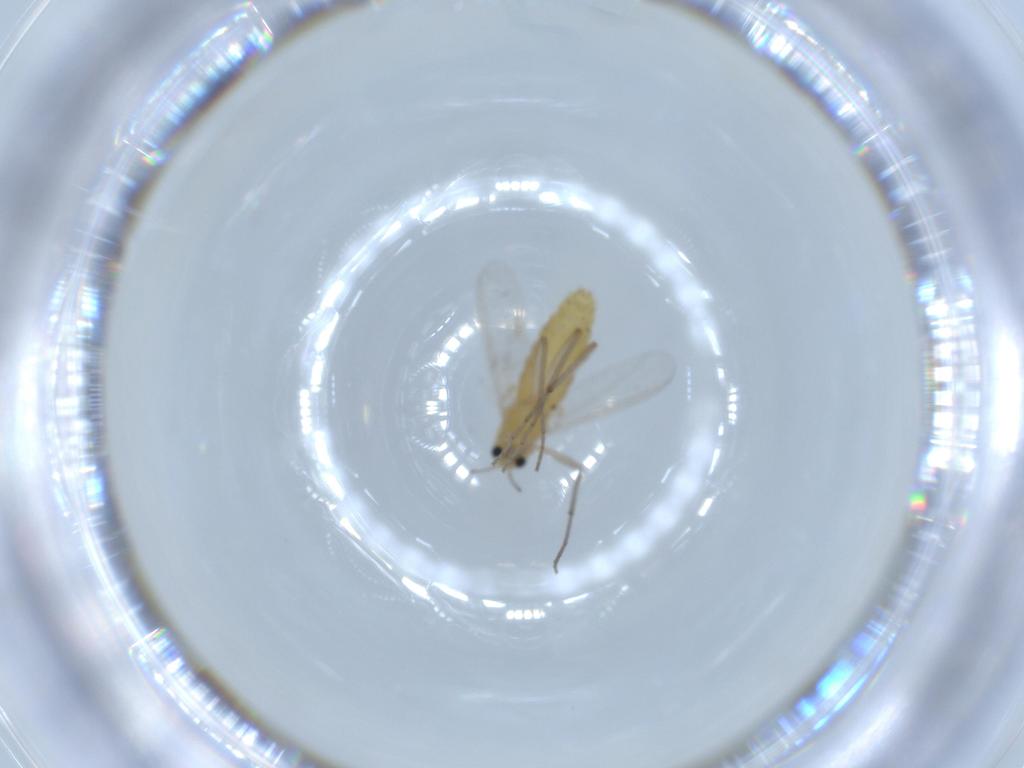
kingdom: Animalia
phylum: Arthropoda
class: Insecta
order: Diptera
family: Chironomidae
